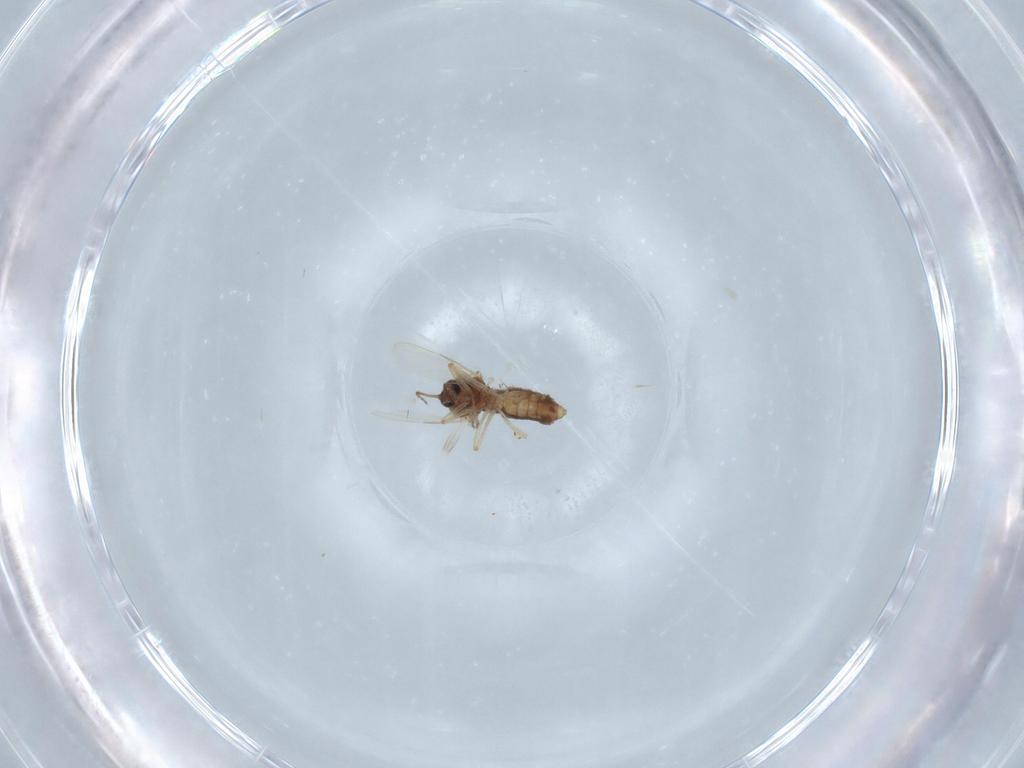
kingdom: Animalia
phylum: Arthropoda
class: Insecta
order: Diptera
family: Ceratopogonidae
